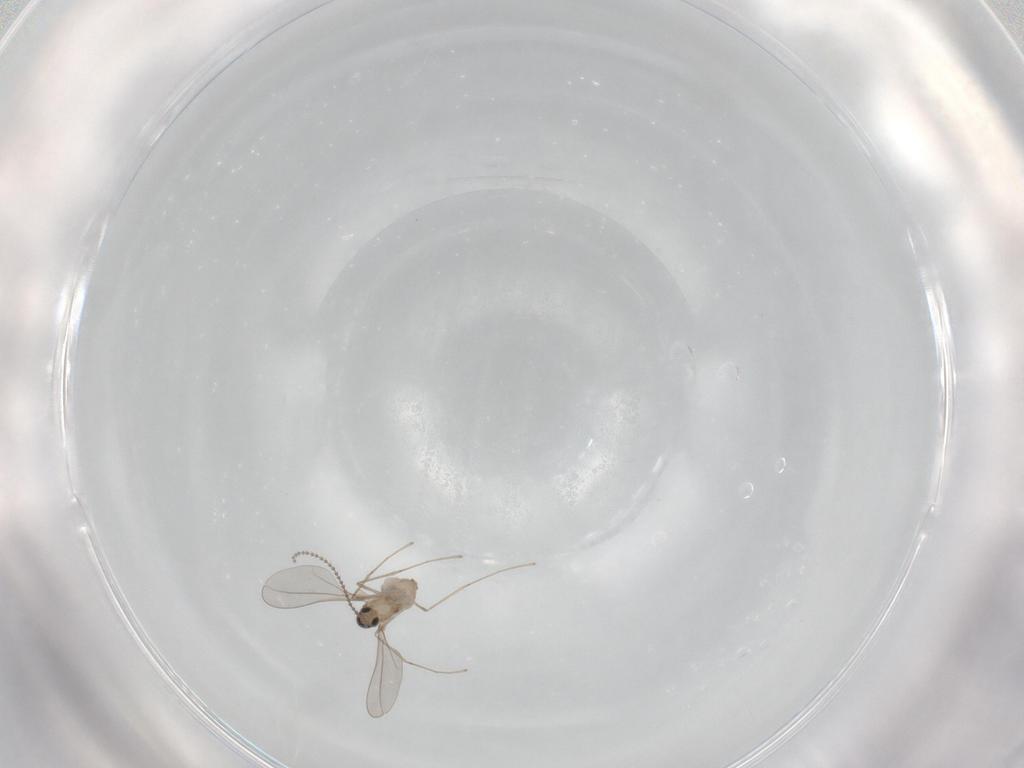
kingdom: Animalia
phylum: Arthropoda
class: Insecta
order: Diptera
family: Cecidomyiidae
